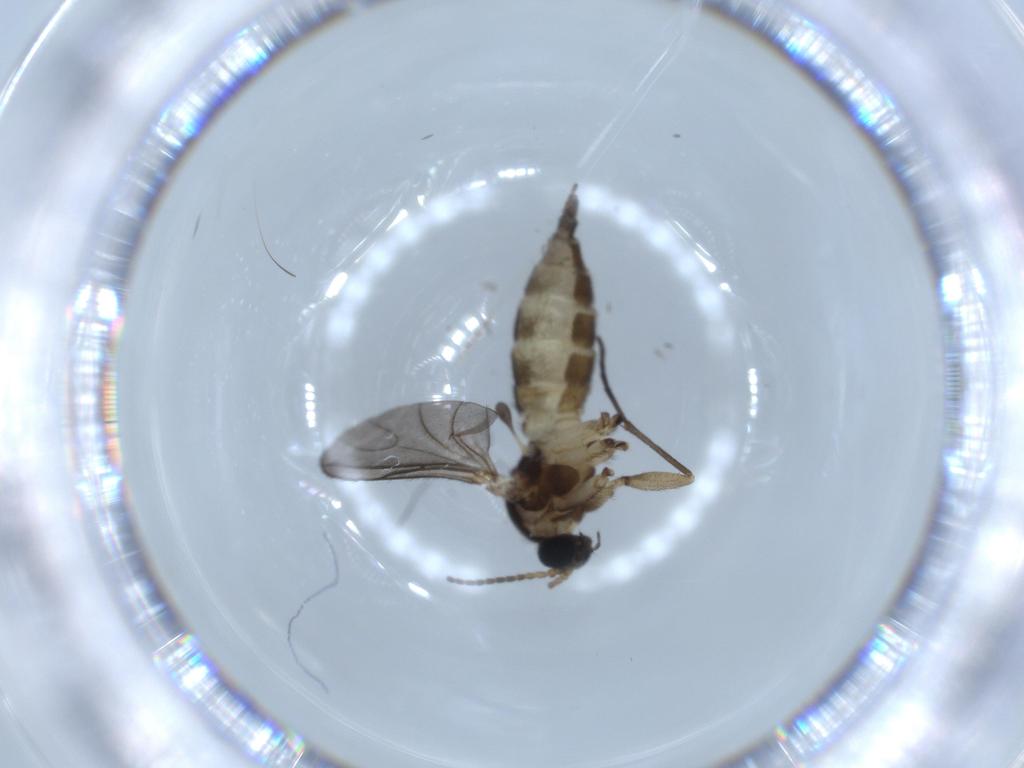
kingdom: Animalia
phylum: Arthropoda
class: Insecta
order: Diptera
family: Sciaridae
